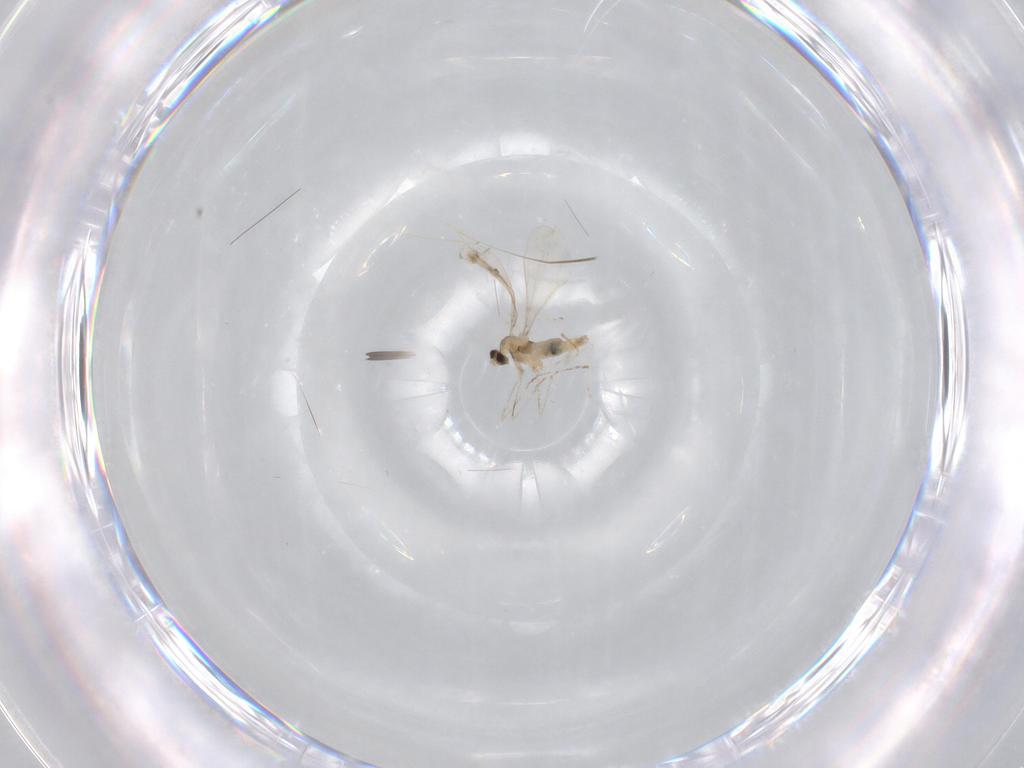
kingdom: Animalia
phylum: Arthropoda
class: Insecta
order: Diptera
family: Cecidomyiidae
